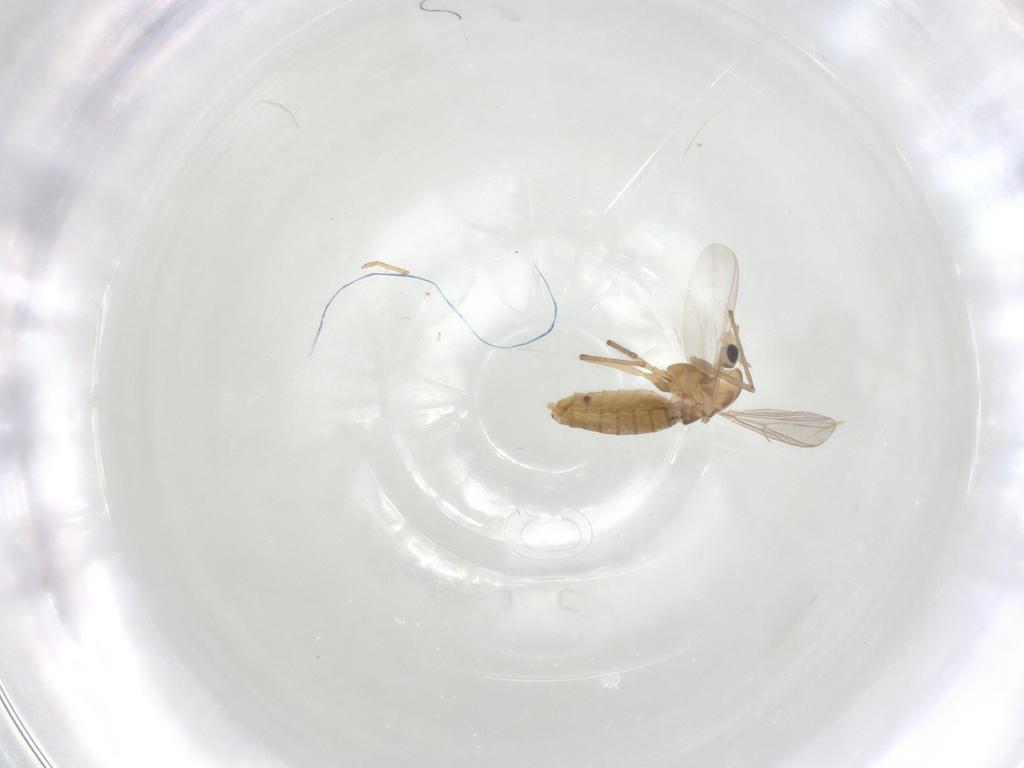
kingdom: Animalia
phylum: Arthropoda
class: Insecta
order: Diptera
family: Chironomidae
